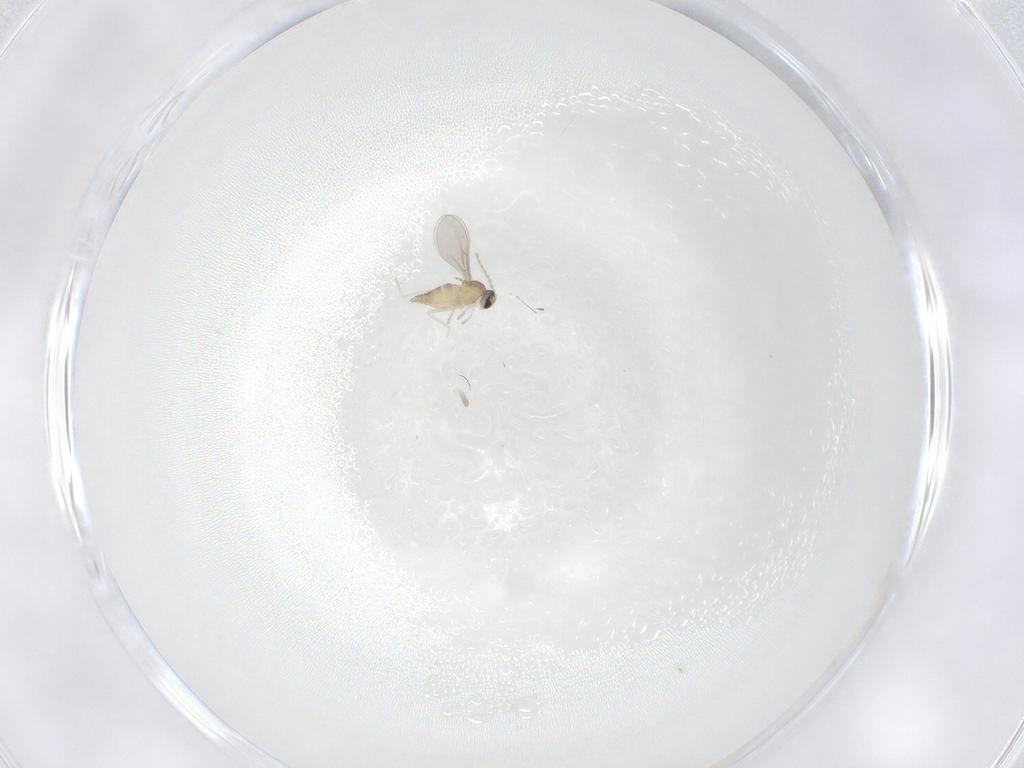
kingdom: Animalia
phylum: Arthropoda
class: Insecta
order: Diptera
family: Cecidomyiidae
